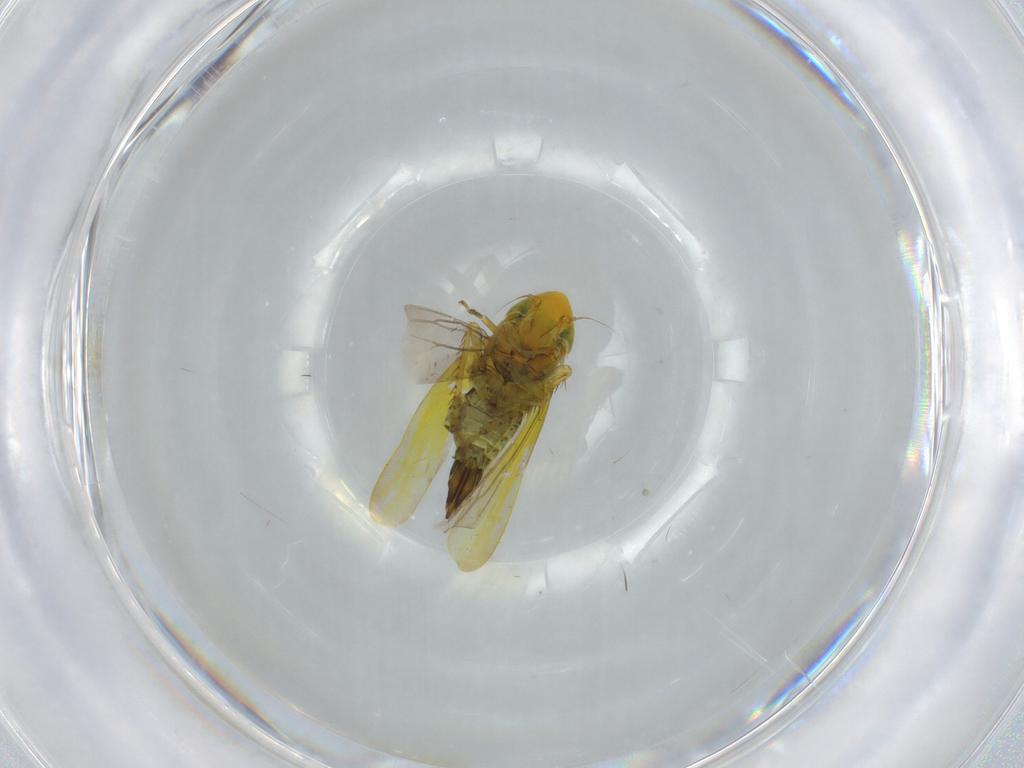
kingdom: Animalia
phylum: Arthropoda
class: Insecta
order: Hemiptera
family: Cicadellidae
